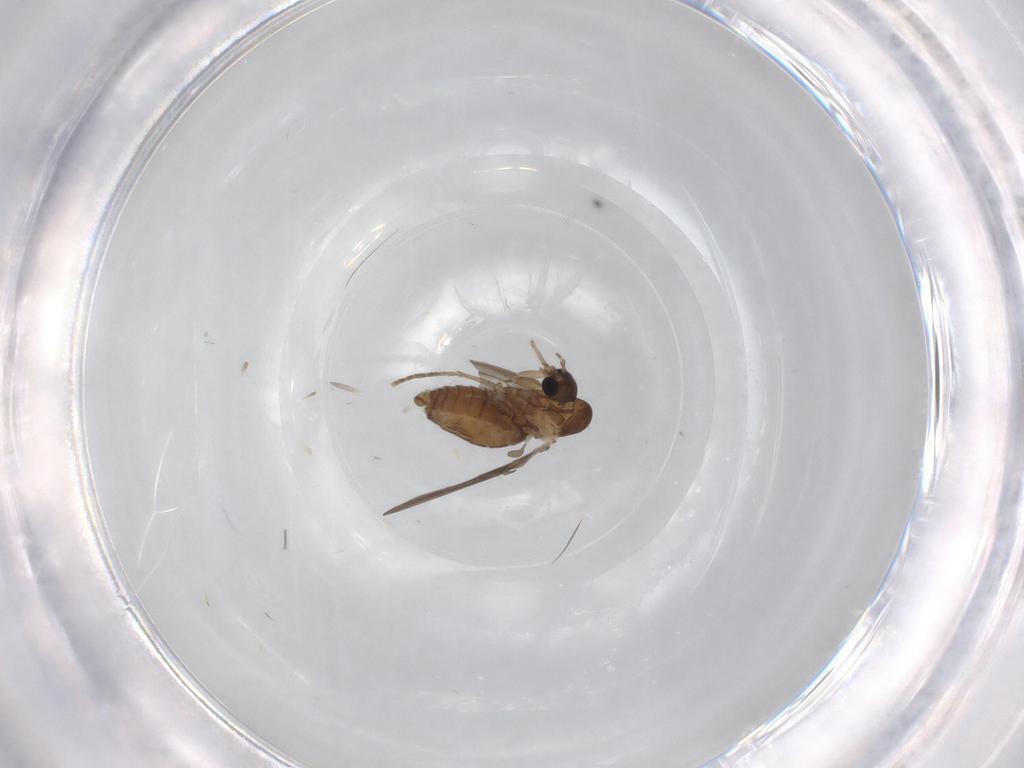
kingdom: Animalia
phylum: Arthropoda
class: Insecta
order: Diptera
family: Psychodidae
